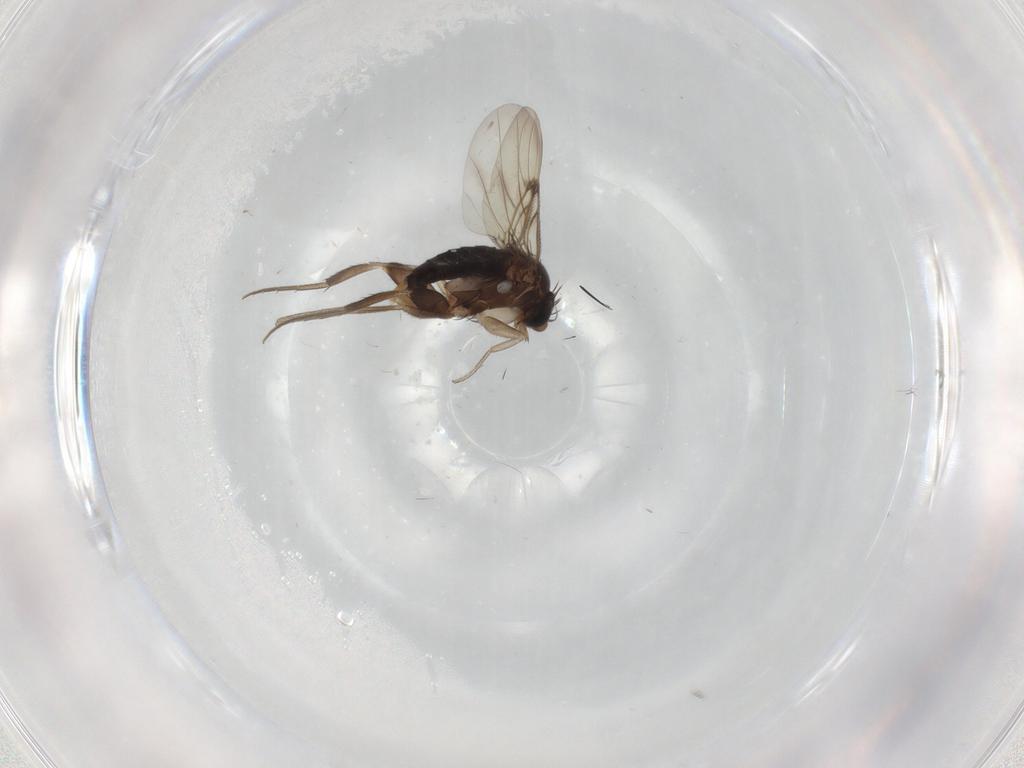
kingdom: Animalia
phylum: Arthropoda
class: Insecta
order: Diptera
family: Phoridae
